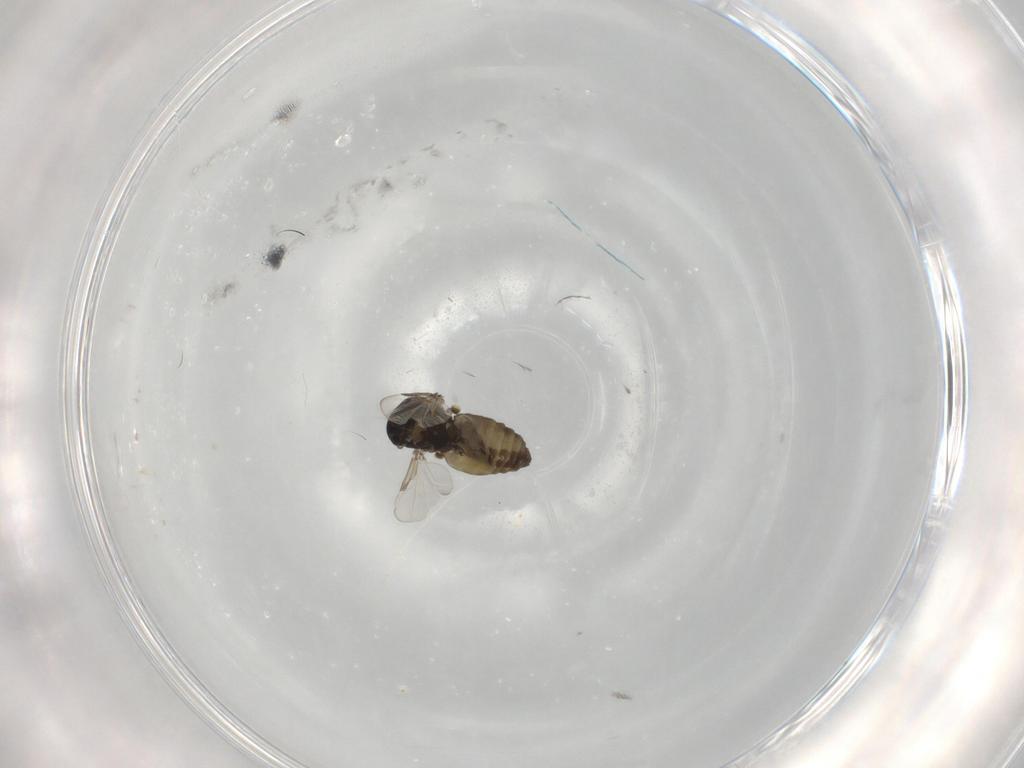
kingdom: Animalia
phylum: Arthropoda
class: Insecta
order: Diptera
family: Ceratopogonidae
